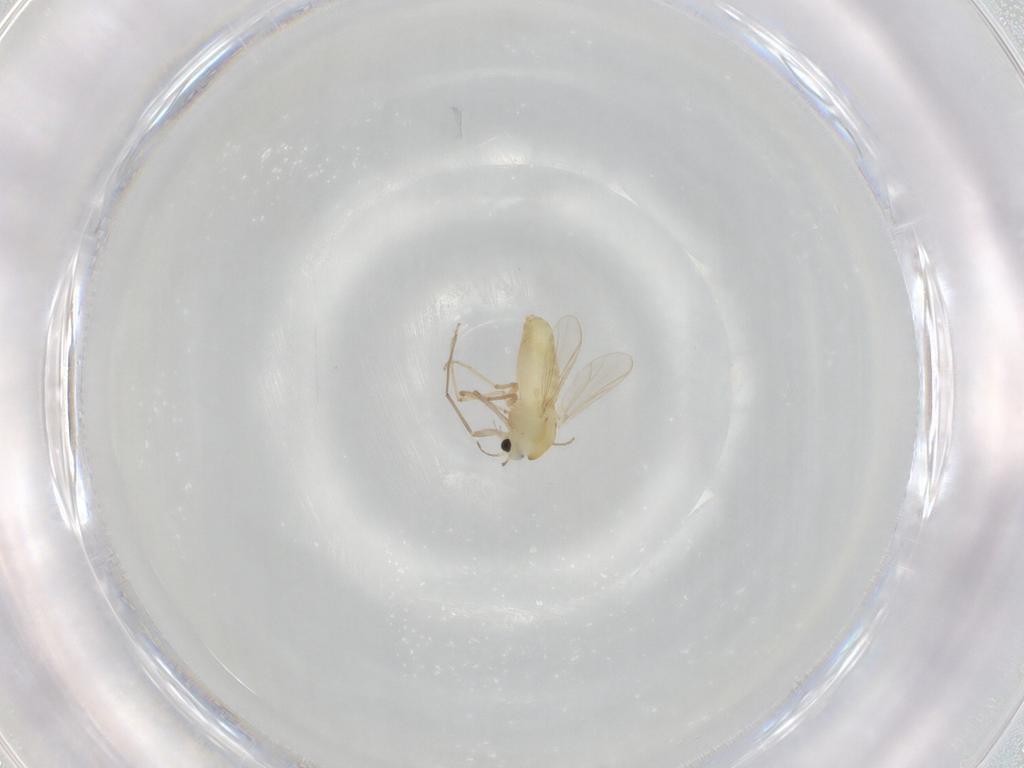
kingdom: Animalia
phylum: Arthropoda
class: Insecta
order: Diptera
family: Chironomidae
